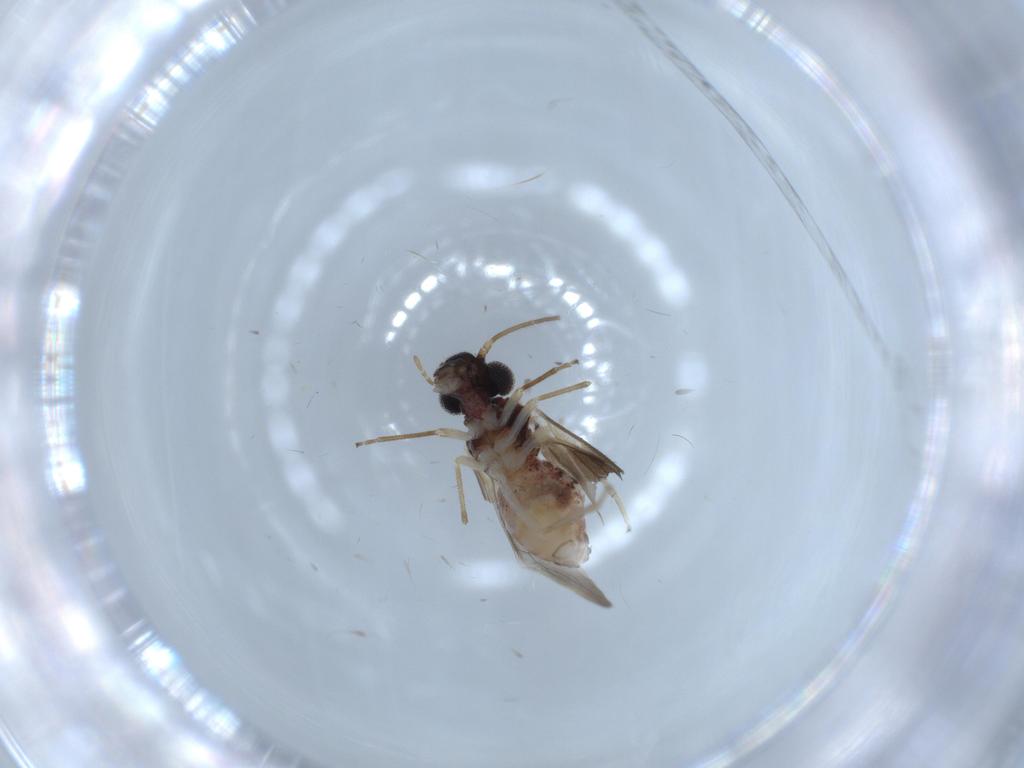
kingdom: Animalia
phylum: Arthropoda
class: Insecta
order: Psocodea
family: Caeciliusidae
